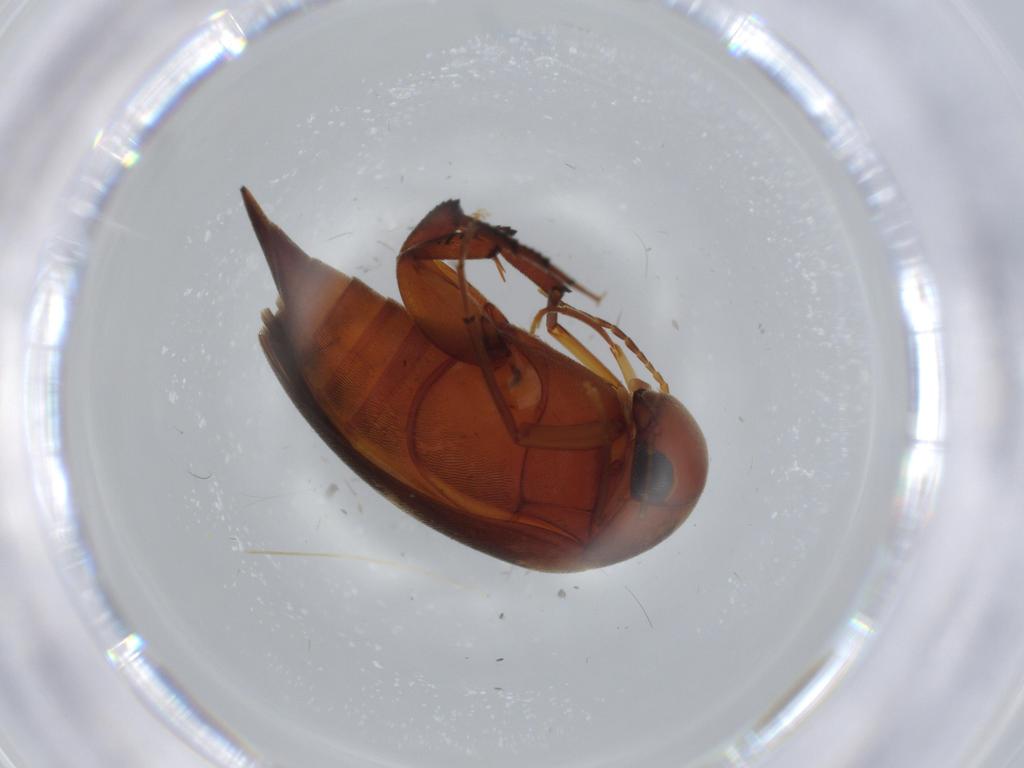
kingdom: Animalia
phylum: Arthropoda
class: Insecta
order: Coleoptera
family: Mordellidae
